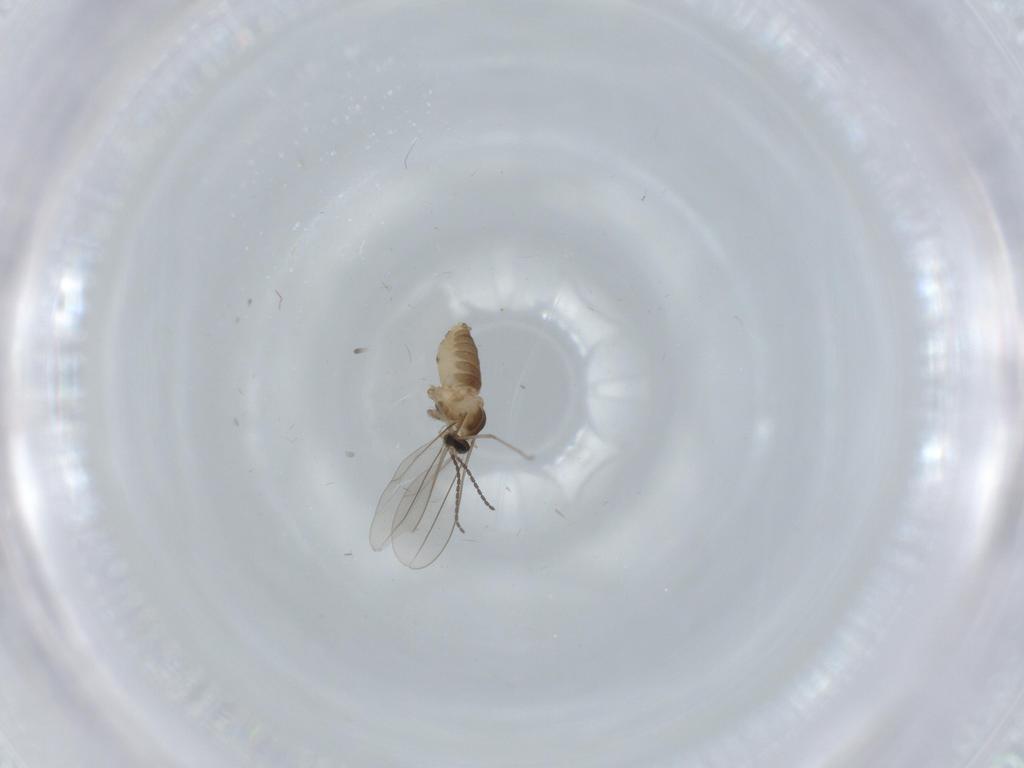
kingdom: Animalia
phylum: Arthropoda
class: Insecta
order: Diptera
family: Cecidomyiidae
